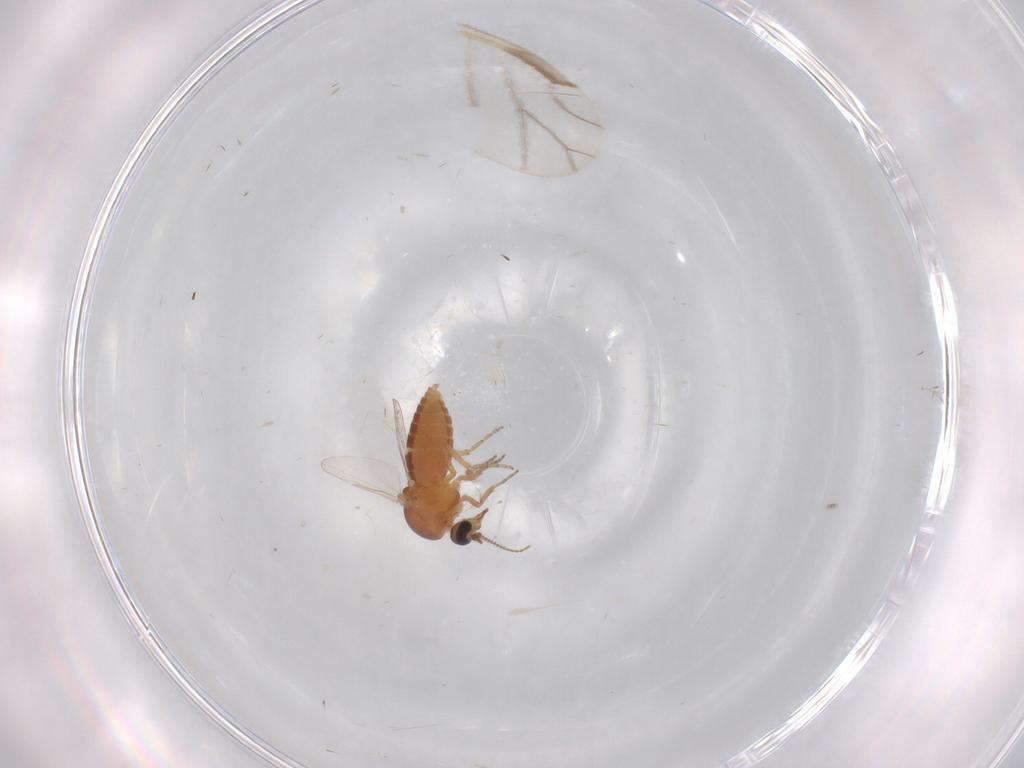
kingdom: Animalia
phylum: Arthropoda
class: Insecta
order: Diptera
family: Ceratopogonidae
